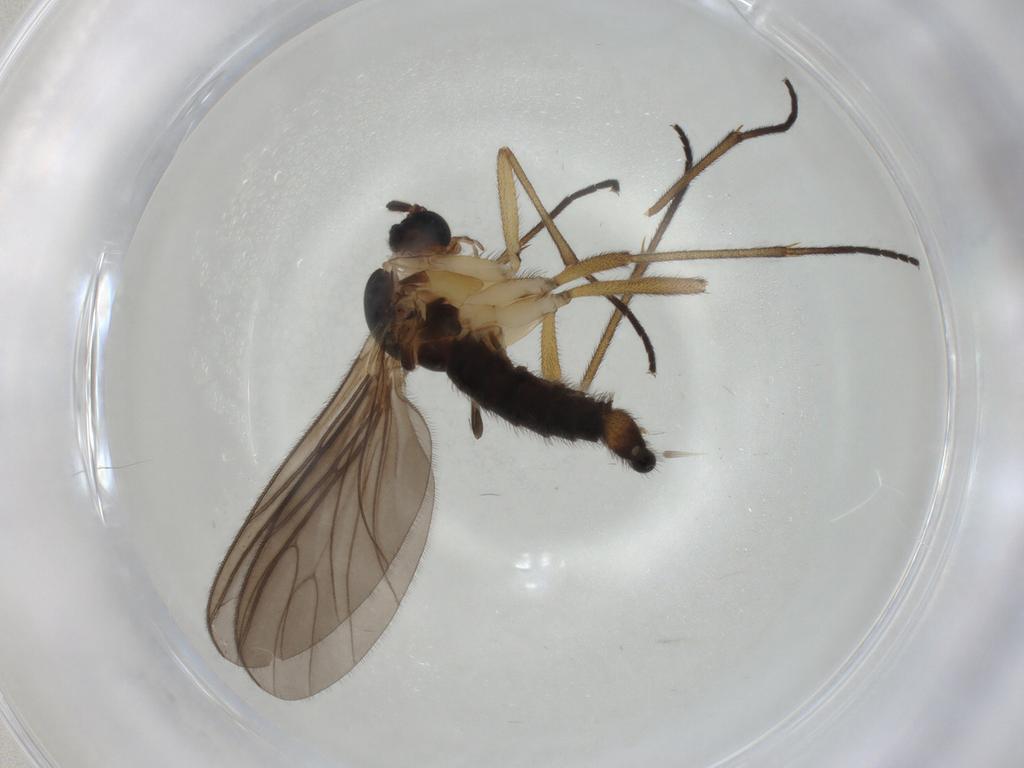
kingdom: Animalia
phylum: Arthropoda
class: Insecta
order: Diptera
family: Sciaridae
